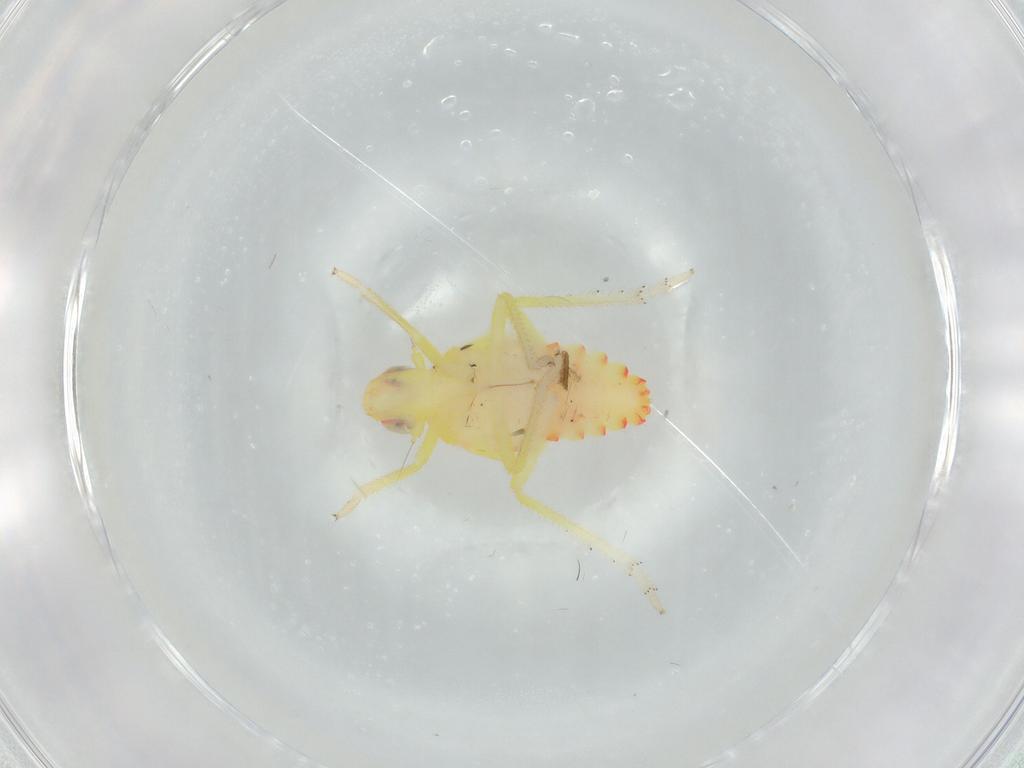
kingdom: Animalia
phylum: Arthropoda
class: Insecta
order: Hemiptera
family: Tropiduchidae
